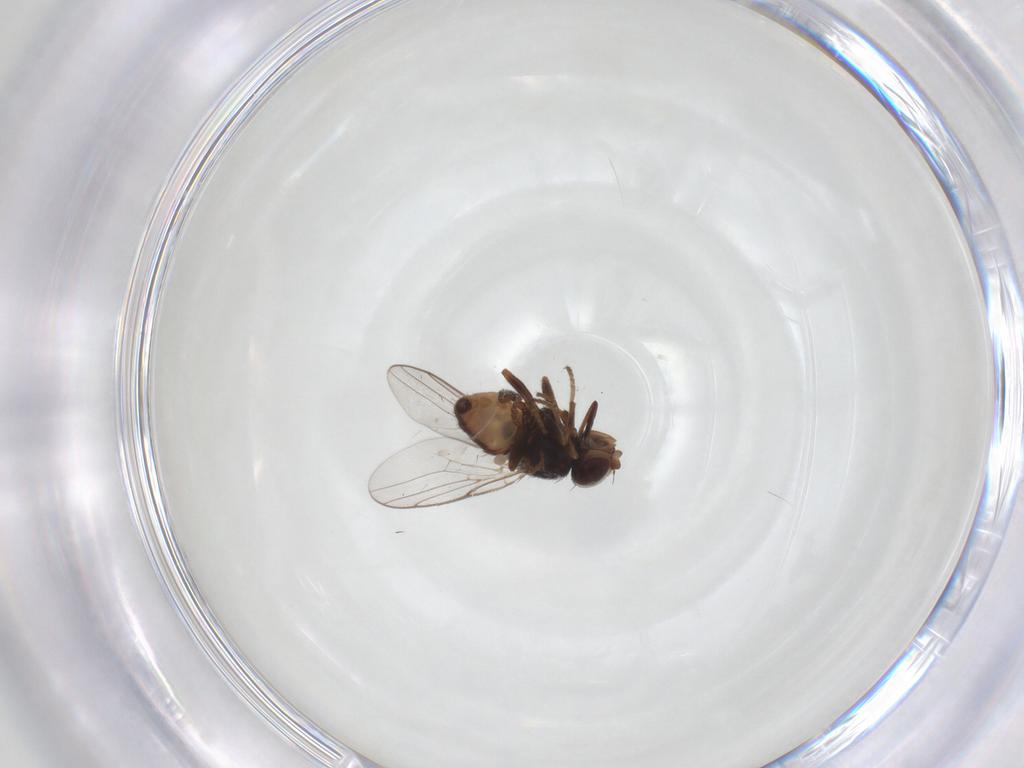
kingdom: Animalia
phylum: Arthropoda
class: Insecta
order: Diptera
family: Chloropidae
